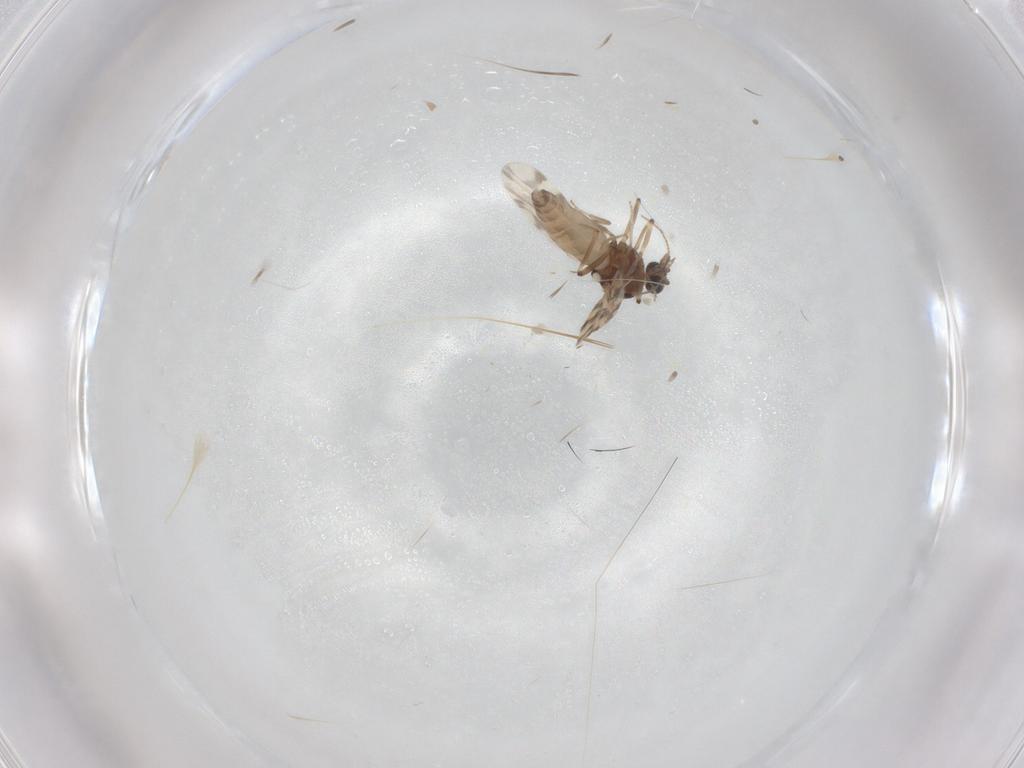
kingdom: Animalia
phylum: Arthropoda
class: Insecta
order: Diptera
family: Ceratopogonidae
